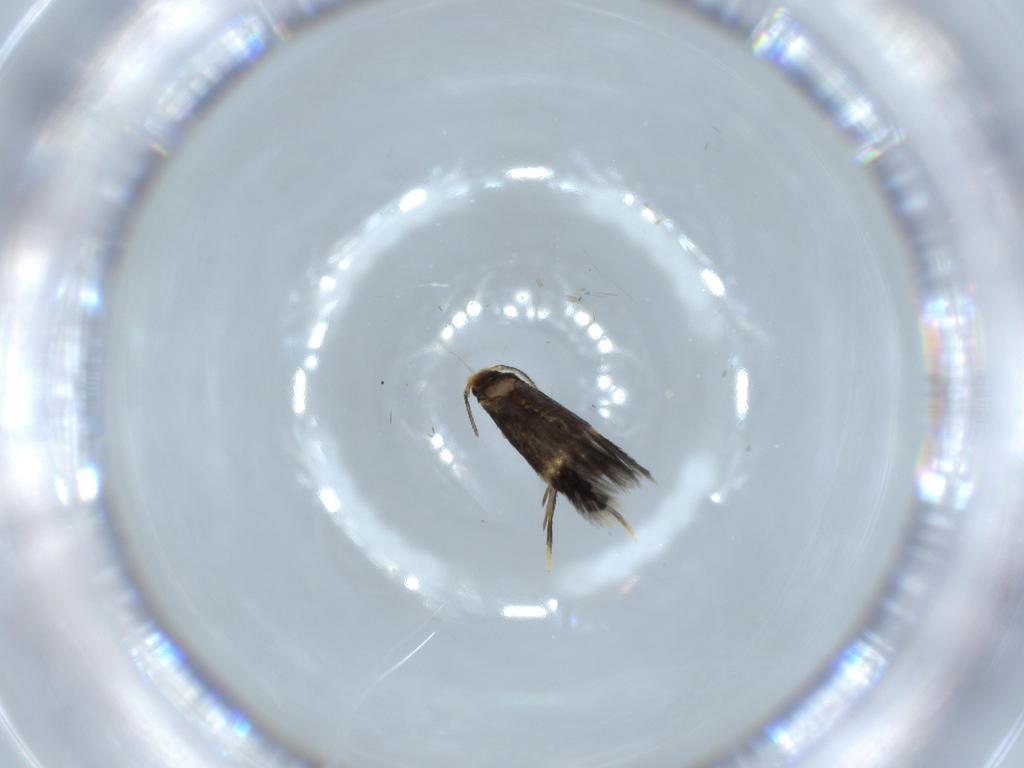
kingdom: Animalia
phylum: Arthropoda
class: Insecta
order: Lepidoptera
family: Nepticulidae
